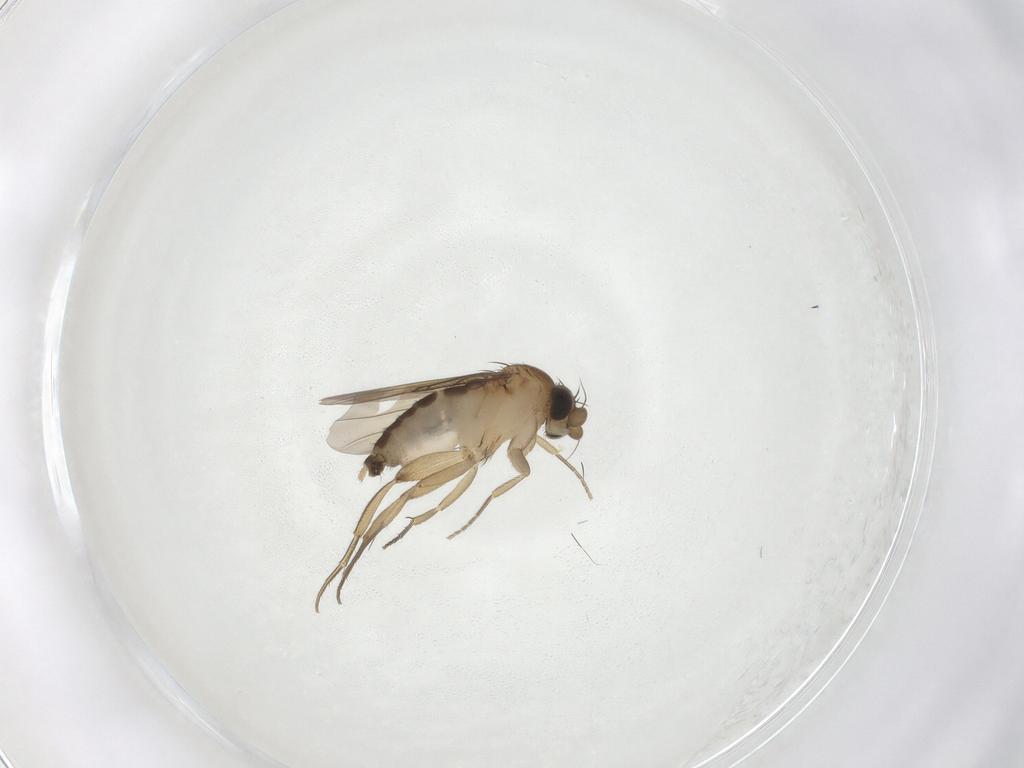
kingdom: Animalia
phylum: Arthropoda
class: Insecta
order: Diptera
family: Phoridae
